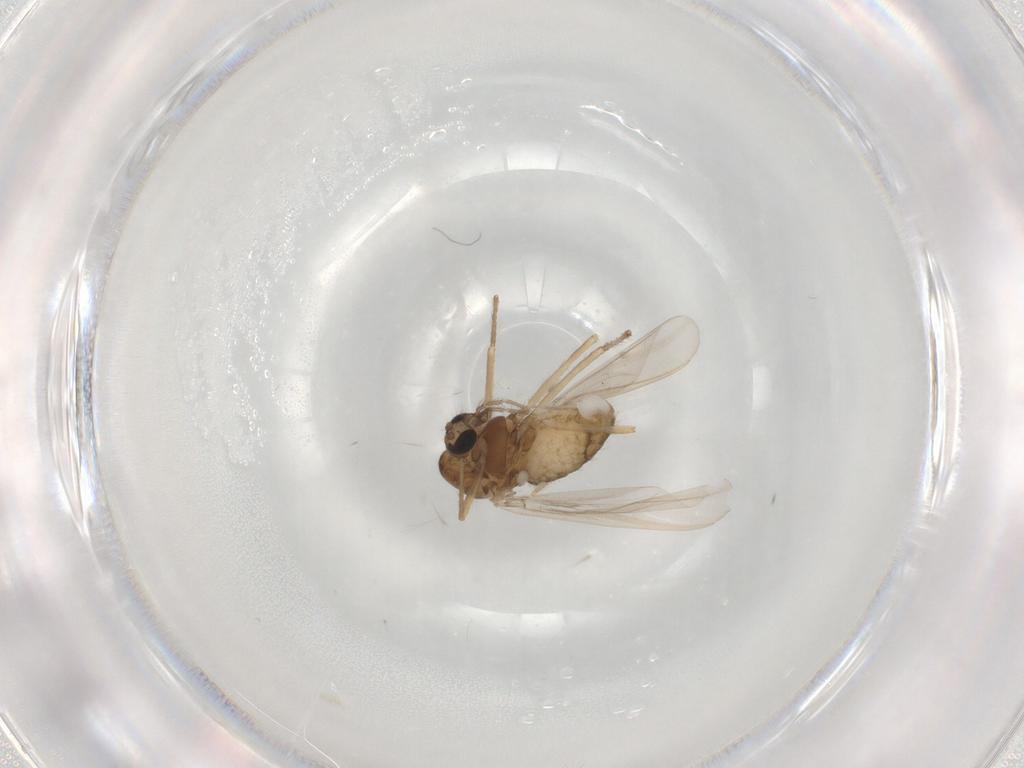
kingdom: Animalia
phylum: Arthropoda
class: Insecta
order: Diptera
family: Chironomidae
